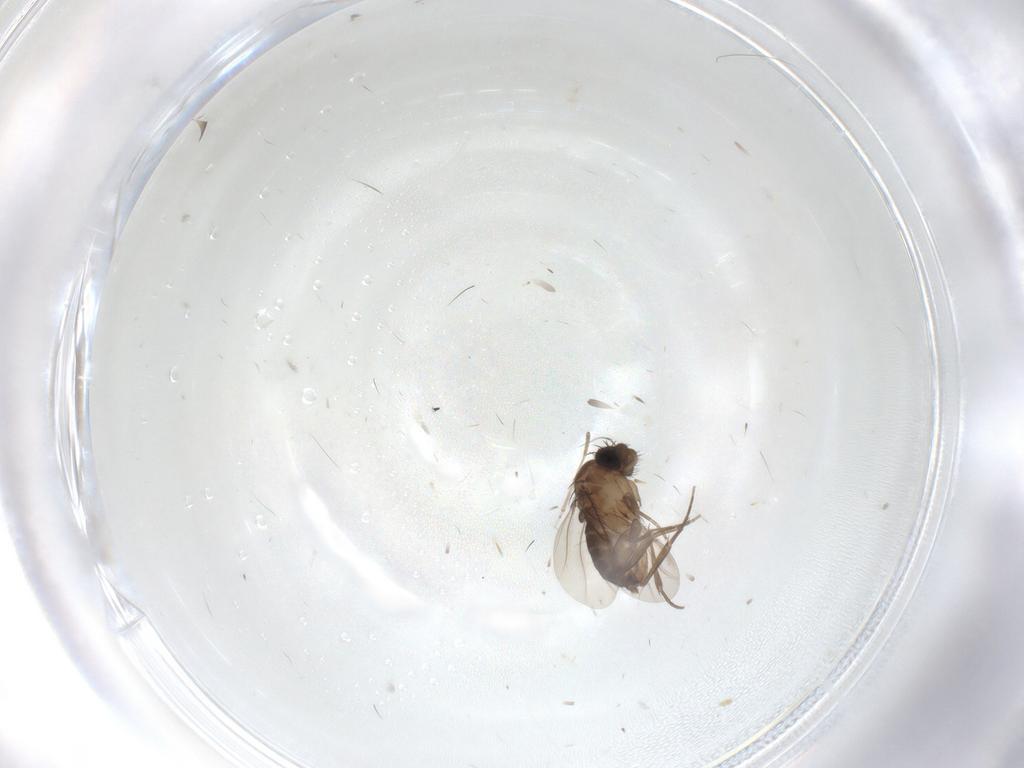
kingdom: Animalia
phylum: Arthropoda
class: Insecta
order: Diptera
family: Phoridae
